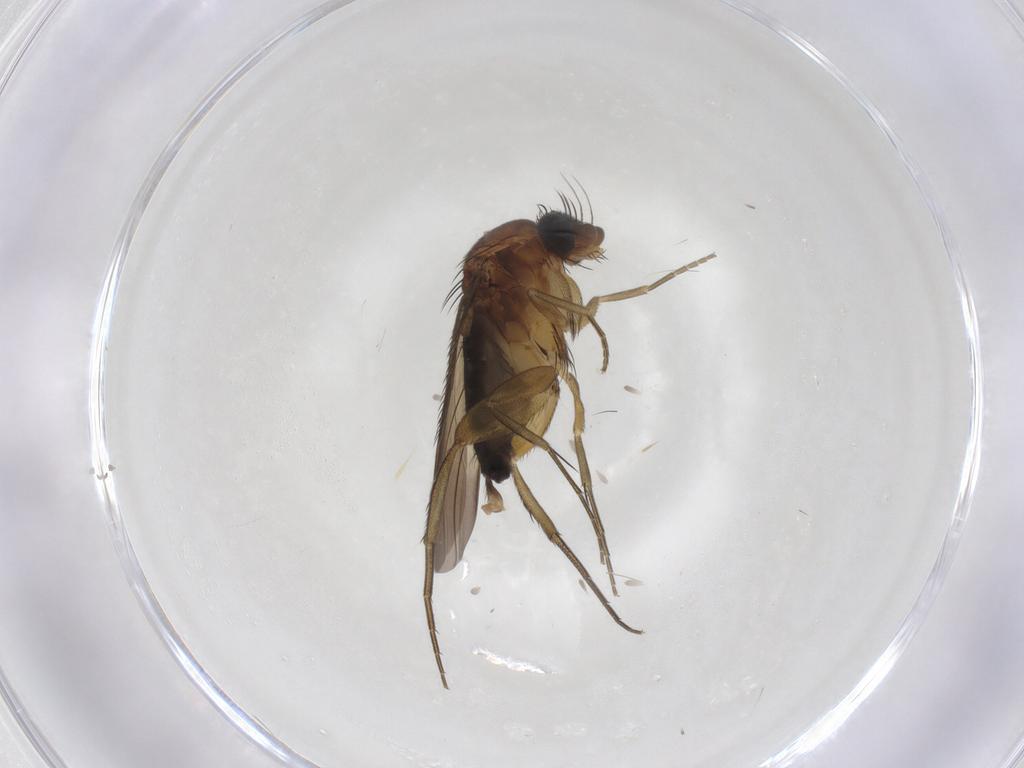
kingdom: Animalia
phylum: Arthropoda
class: Insecta
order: Diptera
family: Phoridae
